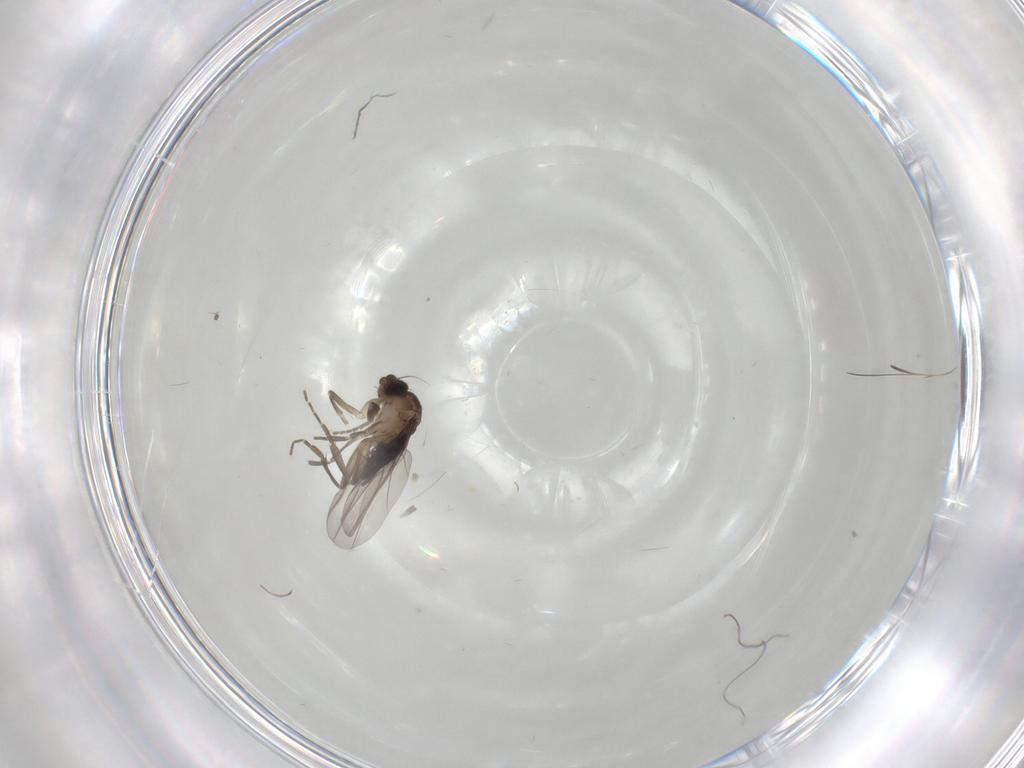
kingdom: Animalia
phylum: Arthropoda
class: Insecta
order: Diptera
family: Phoridae
